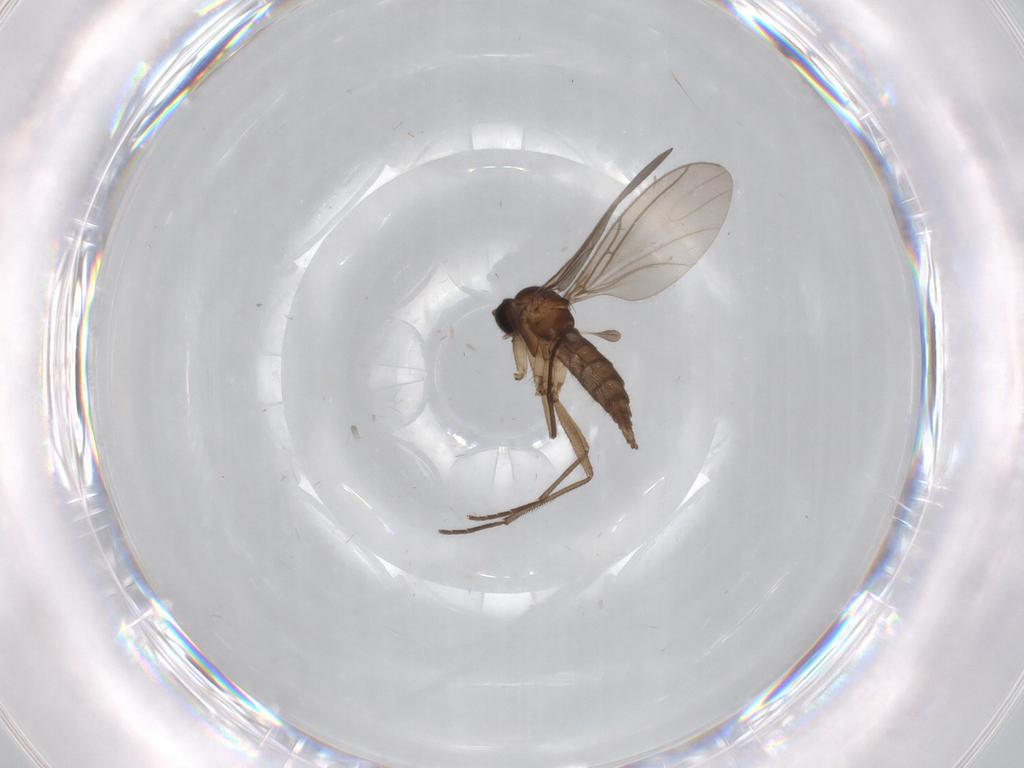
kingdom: Animalia
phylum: Arthropoda
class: Insecta
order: Diptera
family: Sciaridae
